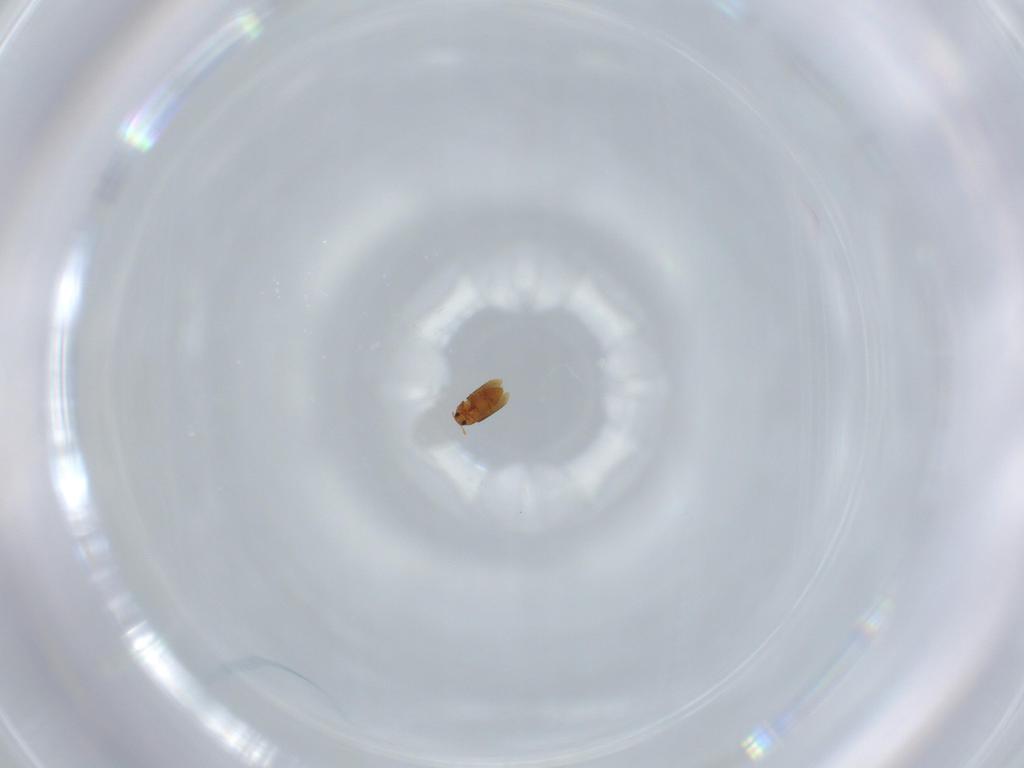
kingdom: Animalia
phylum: Arthropoda
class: Insecta
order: Coleoptera
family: Ptiliidae
